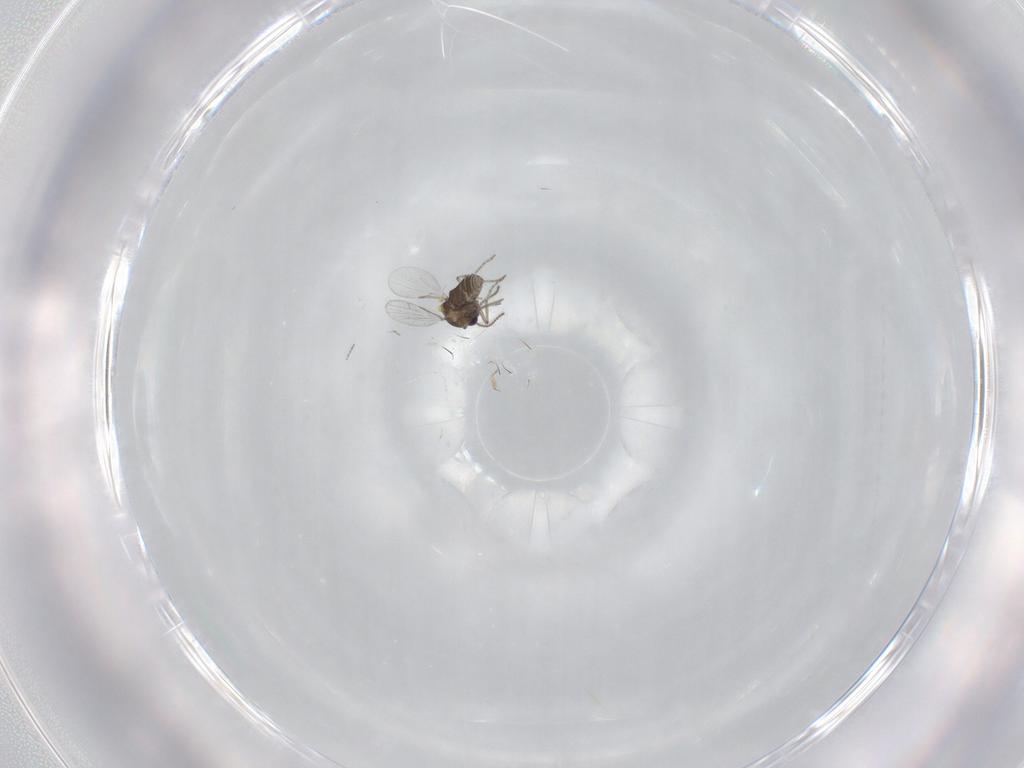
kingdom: Animalia
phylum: Arthropoda
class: Insecta
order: Diptera
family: Ceratopogonidae
